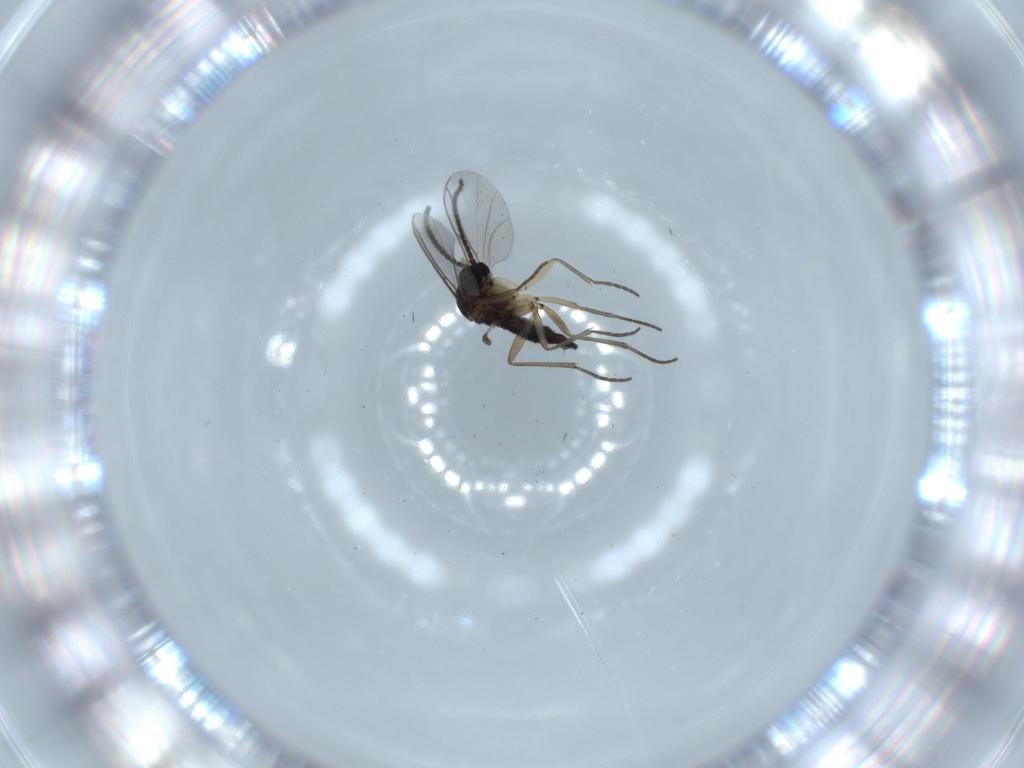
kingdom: Animalia
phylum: Arthropoda
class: Insecta
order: Diptera
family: Sciaridae
